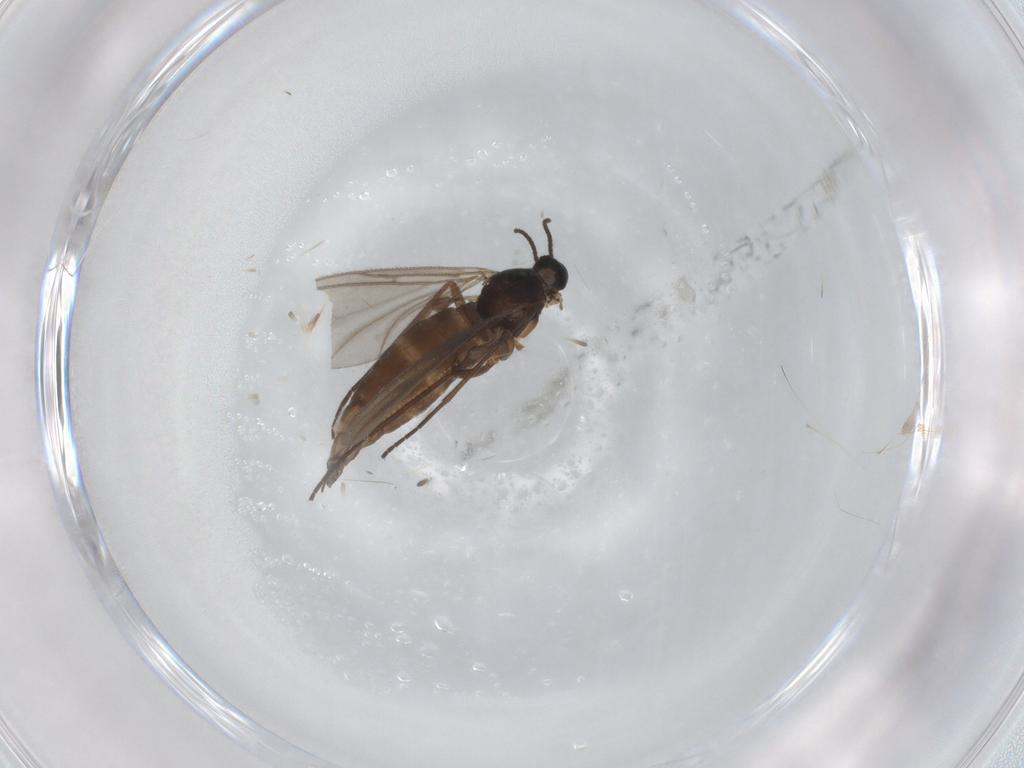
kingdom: Animalia
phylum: Arthropoda
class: Insecta
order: Diptera
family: Sciaridae
